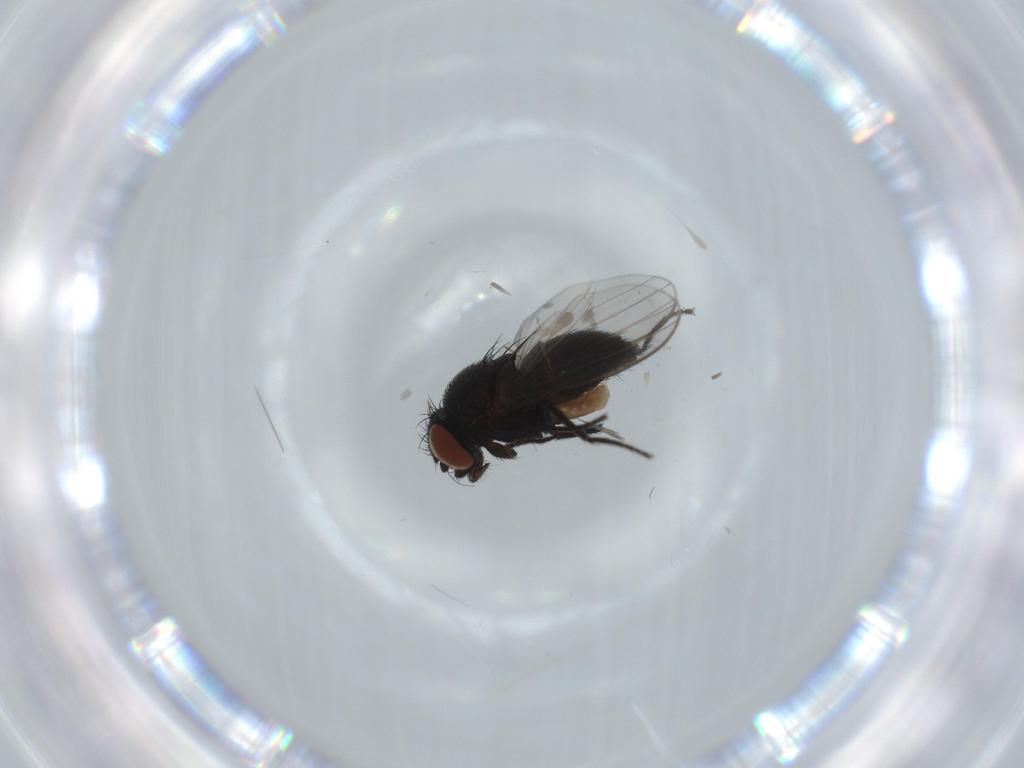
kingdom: Animalia
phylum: Arthropoda
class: Insecta
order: Diptera
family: Milichiidae
